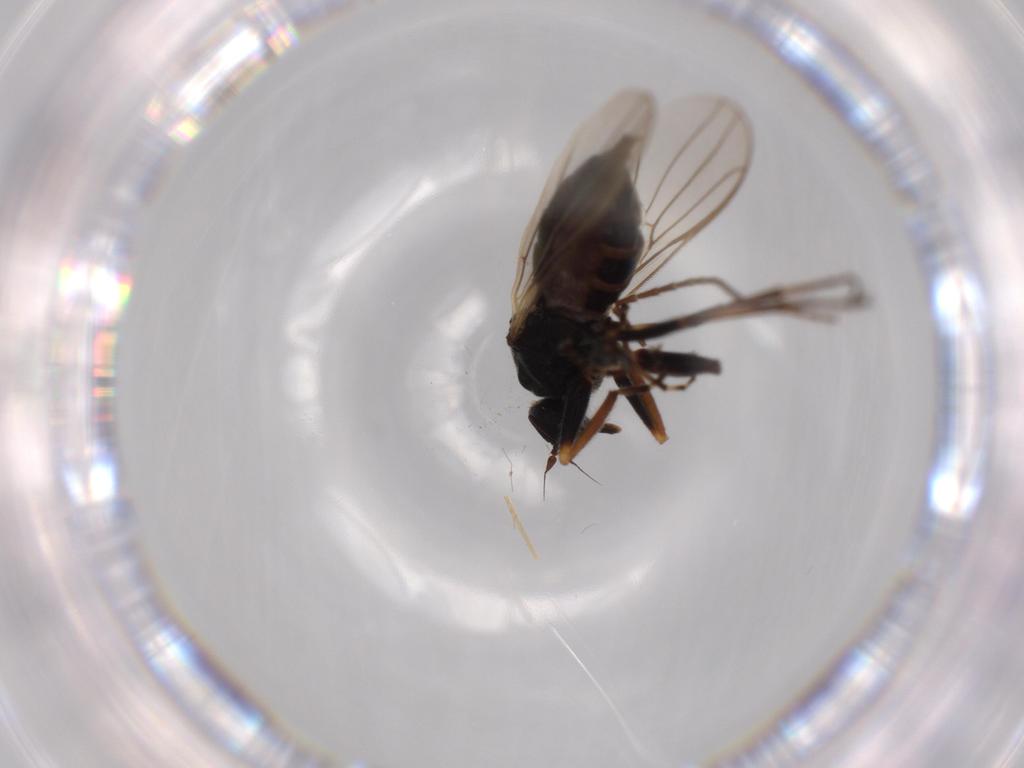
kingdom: Animalia
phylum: Arthropoda
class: Insecta
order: Diptera
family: Hybotidae
